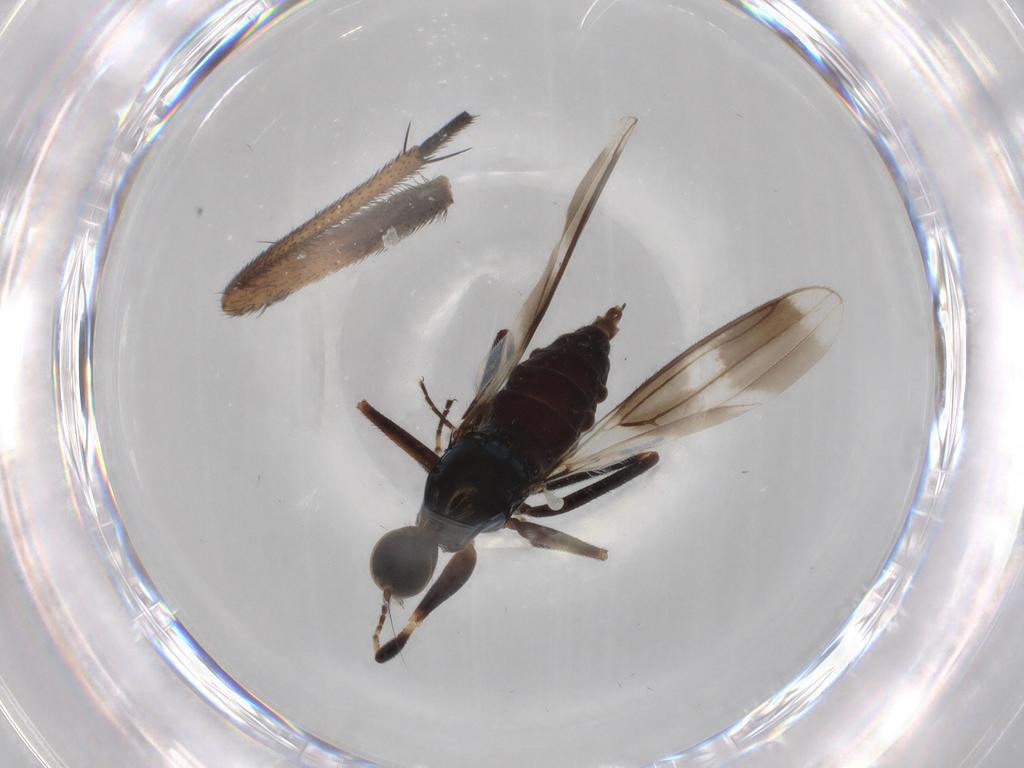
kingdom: Animalia
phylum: Arthropoda
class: Insecta
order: Diptera
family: Hybotidae
